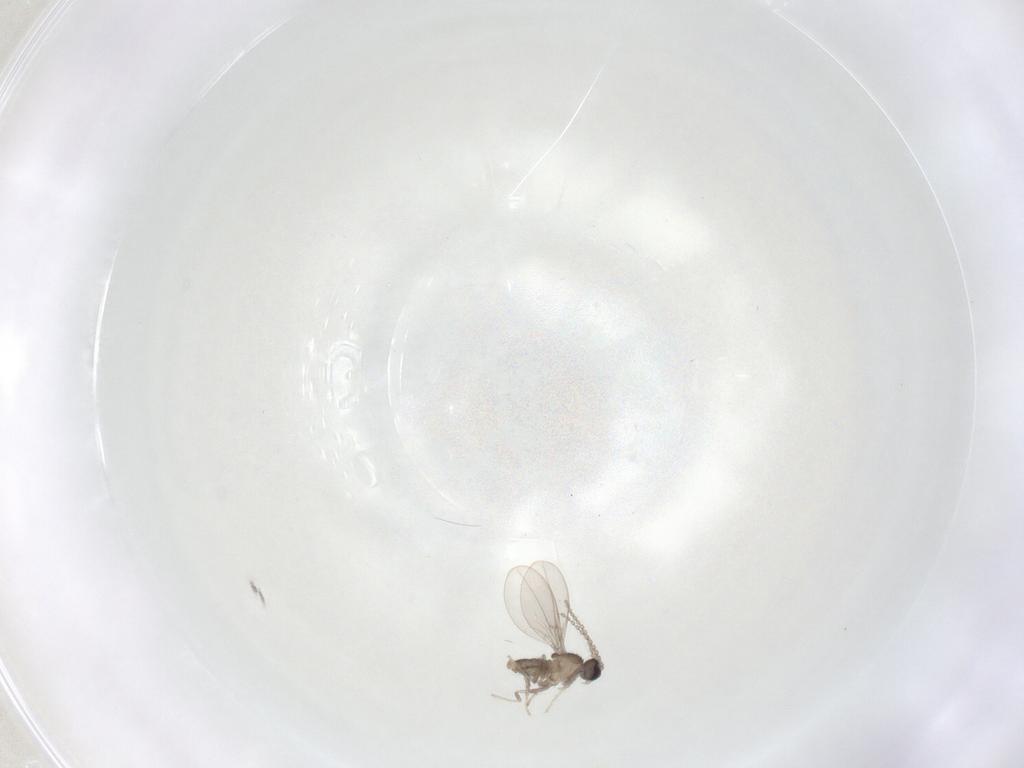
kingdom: Animalia
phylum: Arthropoda
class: Insecta
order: Diptera
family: Cecidomyiidae
